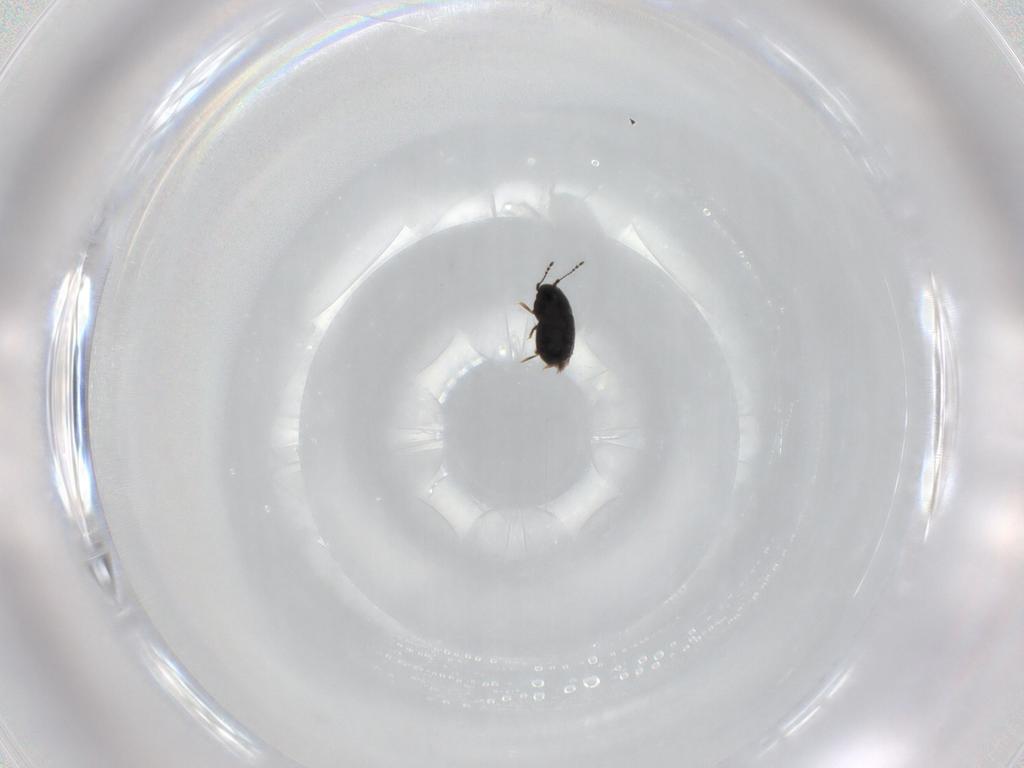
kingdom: Animalia
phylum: Arthropoda
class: Insecta
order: Coleoptera
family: Ptiliidae
